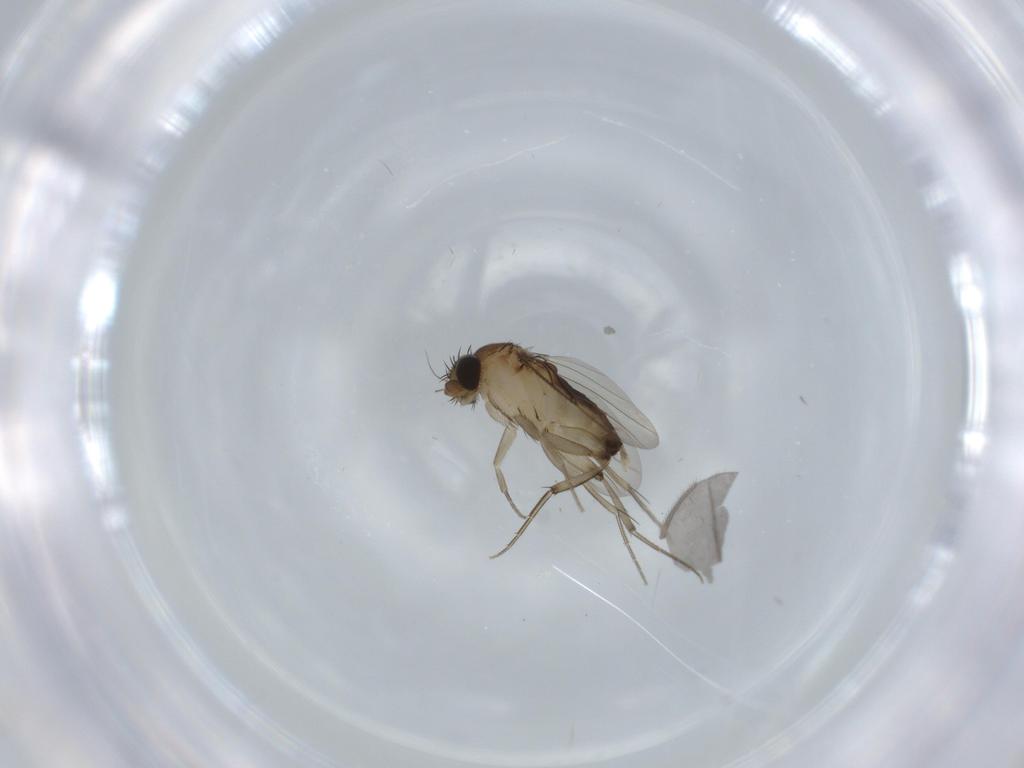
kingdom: Animalia
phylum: Arthropoda
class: Insecta
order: Diptera
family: Phoridae
